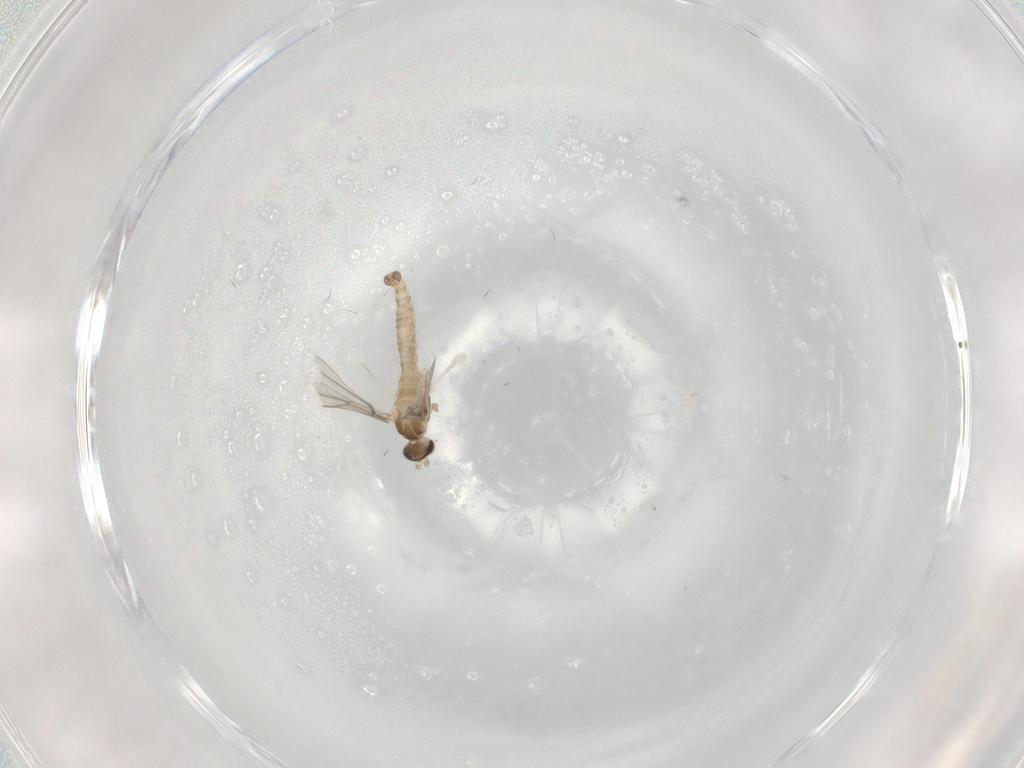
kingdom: Animalia
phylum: Arthropoda
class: Insecta
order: Diptera
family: Cecidomyiidae
